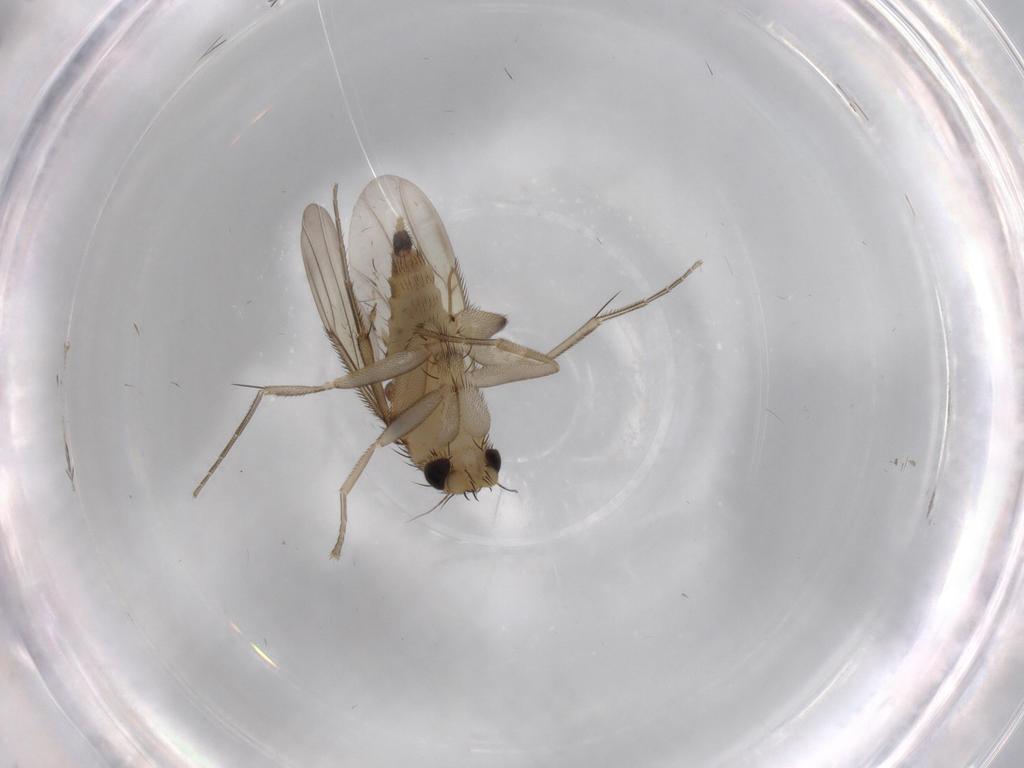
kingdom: Animalia
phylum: Arthropoda
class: Insecta
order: Diptera
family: Phoridae
